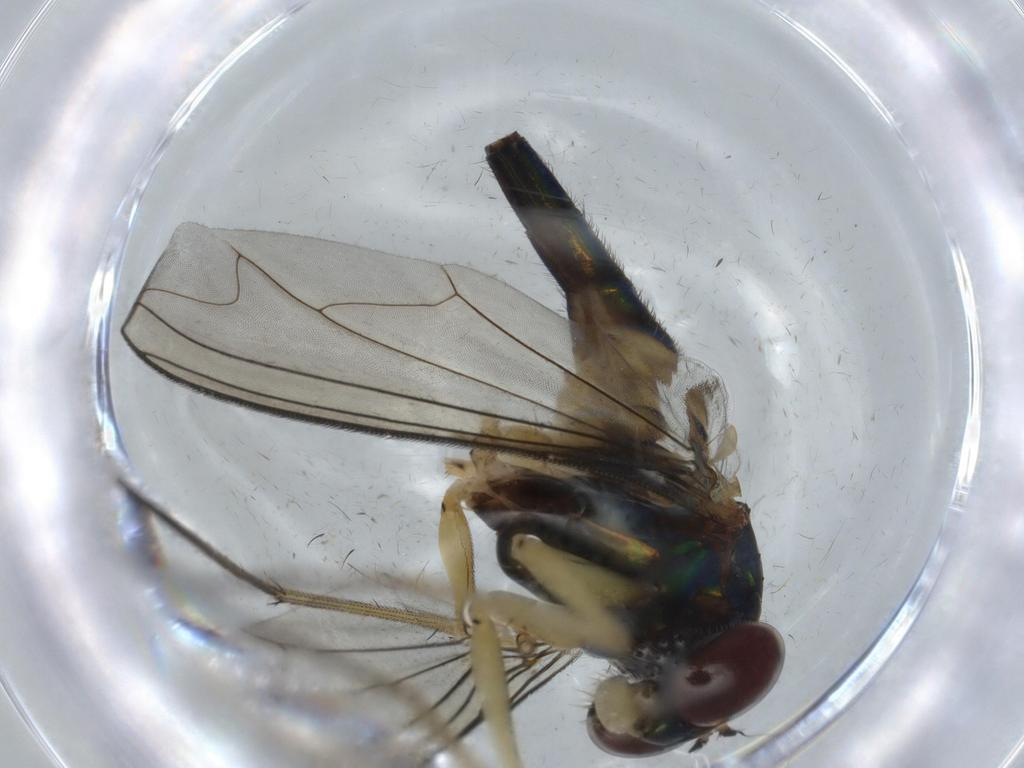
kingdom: Animalia
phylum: Arthropoda
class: Insecta
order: Diptera
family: Dolichopodidae
